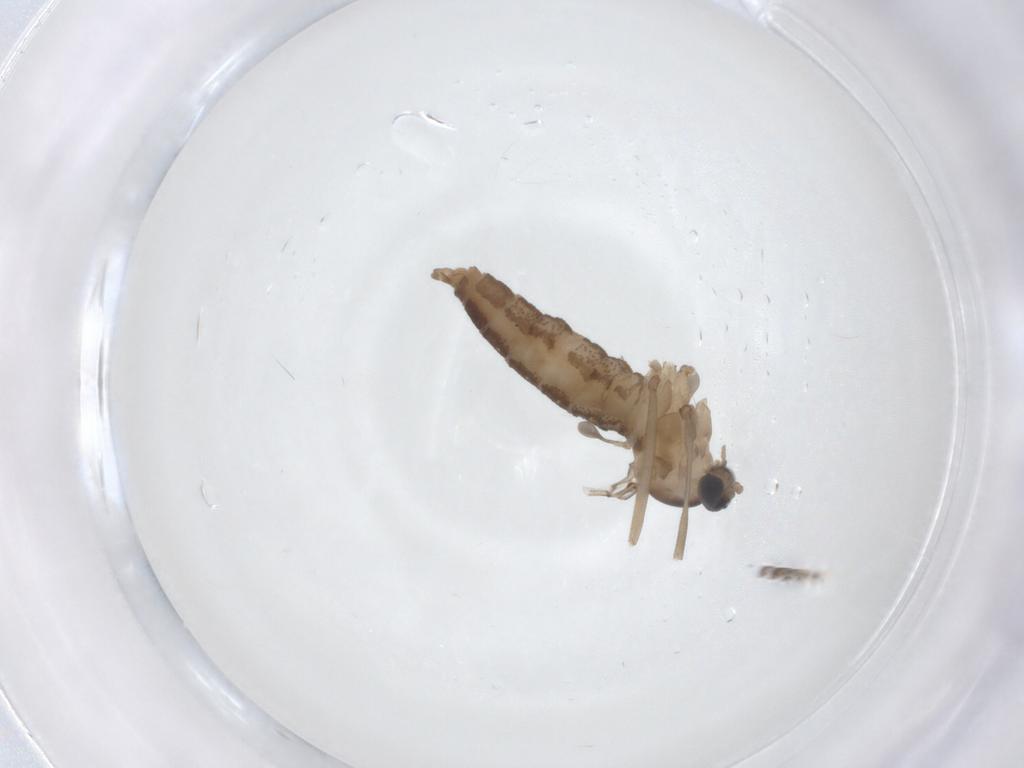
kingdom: Animalia
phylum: Arthropoda
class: Insecta
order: Diptera
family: Cecidomyiidae
